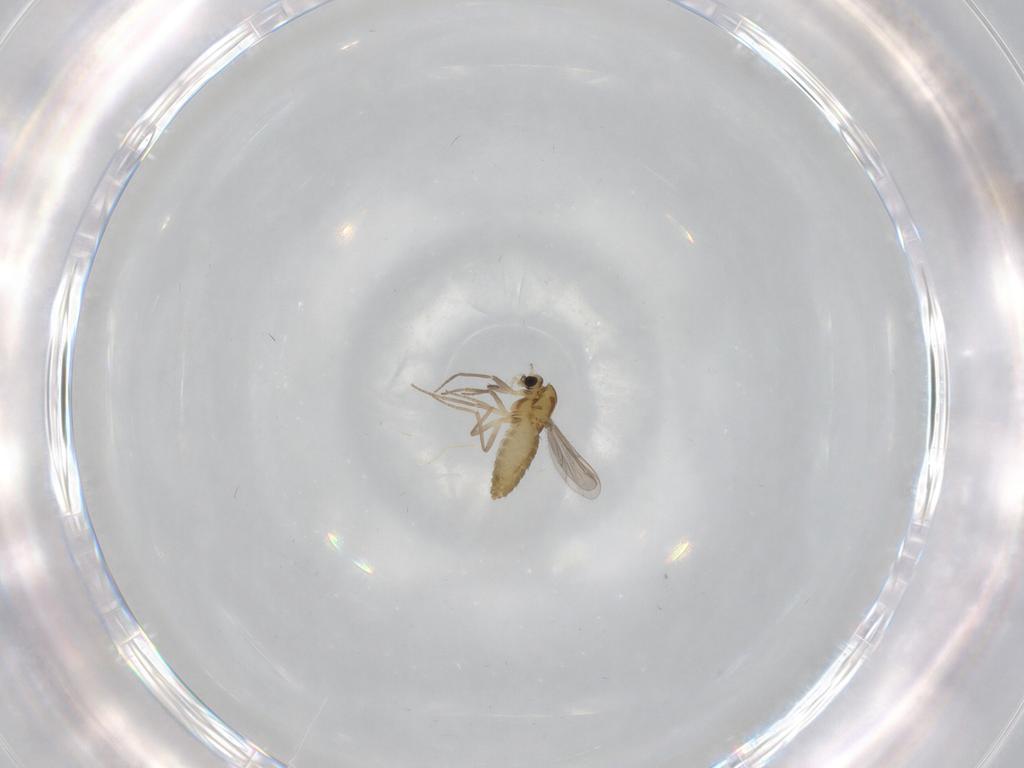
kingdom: Animalia
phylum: Arthropoda
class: Insecta
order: Diptera
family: Chironomidae
